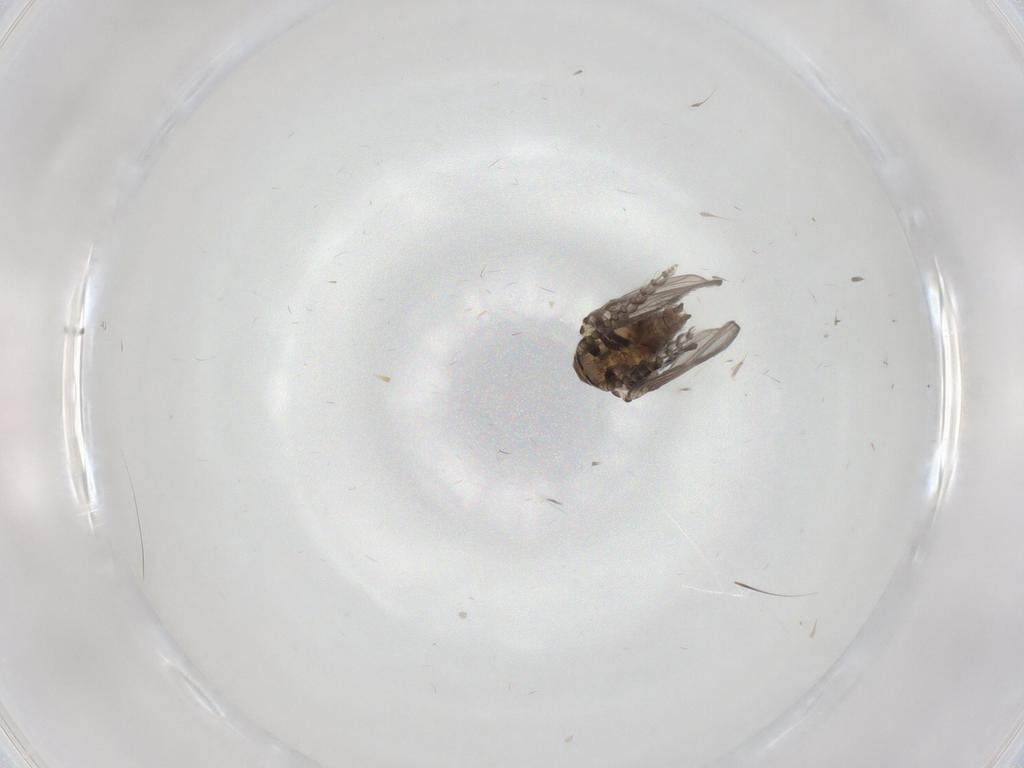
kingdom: Animalia
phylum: Arthropoda
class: Insecta
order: Diptera
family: Psychodidae
